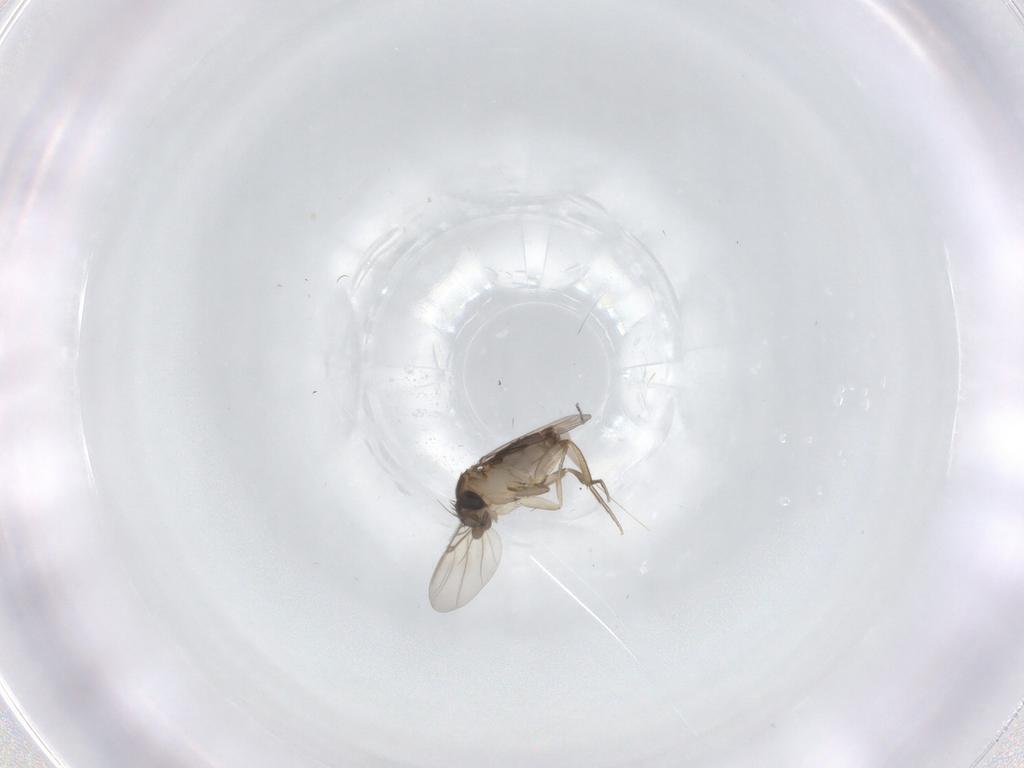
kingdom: Animalia
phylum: Arthropoda
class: Insecta
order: Diptera
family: Phoridae
